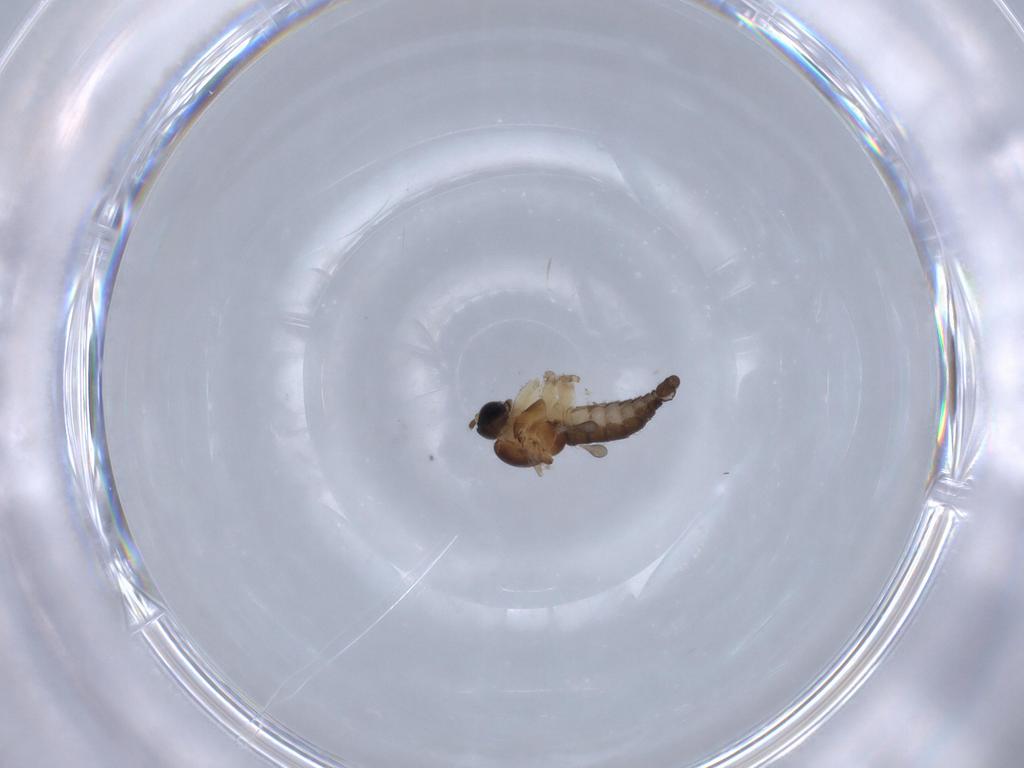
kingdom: Animalia
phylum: Arthropoda
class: Insecta
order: Diptera
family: Sciaridae
